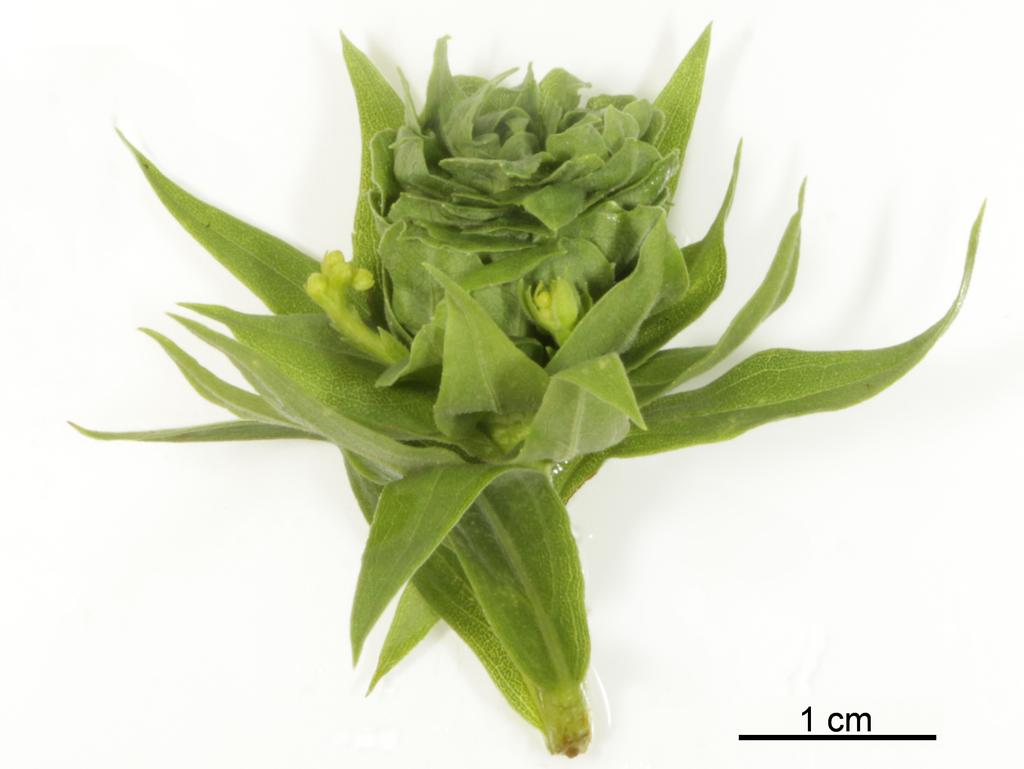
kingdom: Animalia
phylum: Arthropoda
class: Insecta
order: Hymenoptera
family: Torymidae
